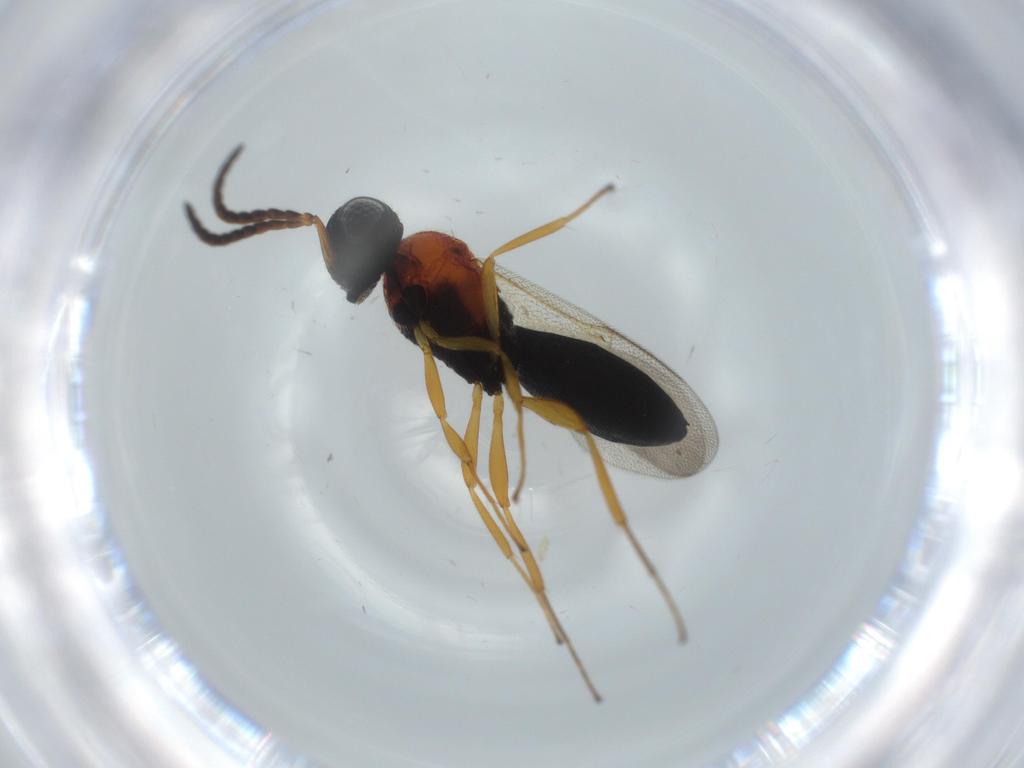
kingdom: Animalia
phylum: Arthropoda
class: Insecta
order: Hymenoptera
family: Scelionidae
